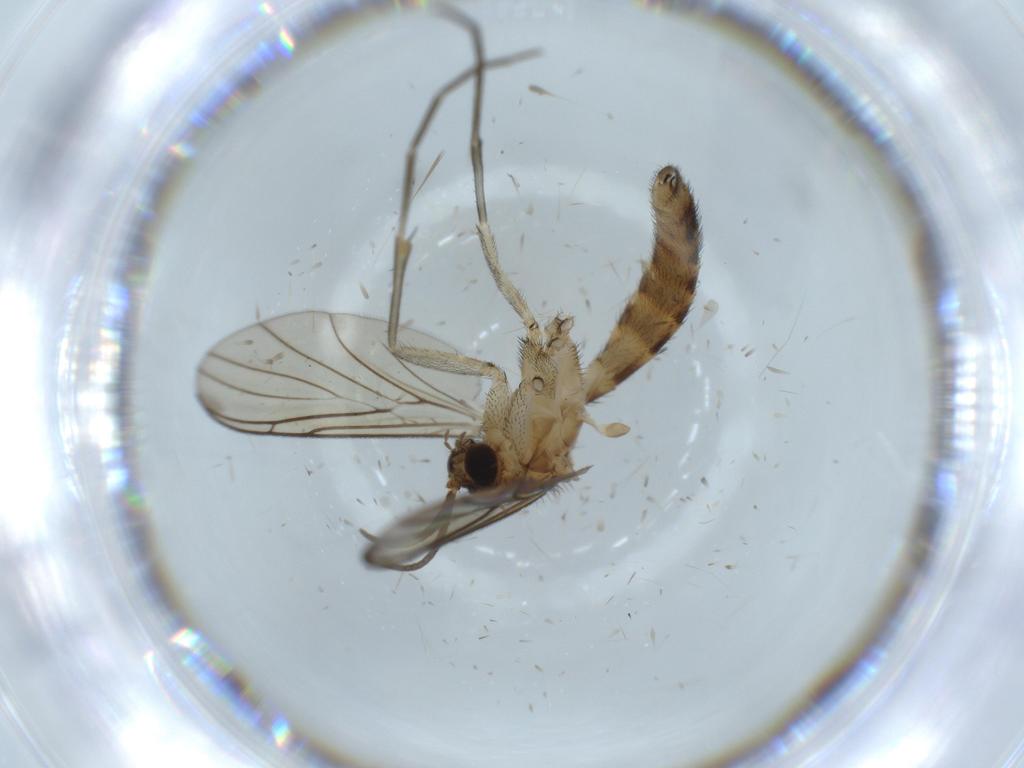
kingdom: Animalia
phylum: Arthropoda
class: Insecta
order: Diptera
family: Keroplatidae
